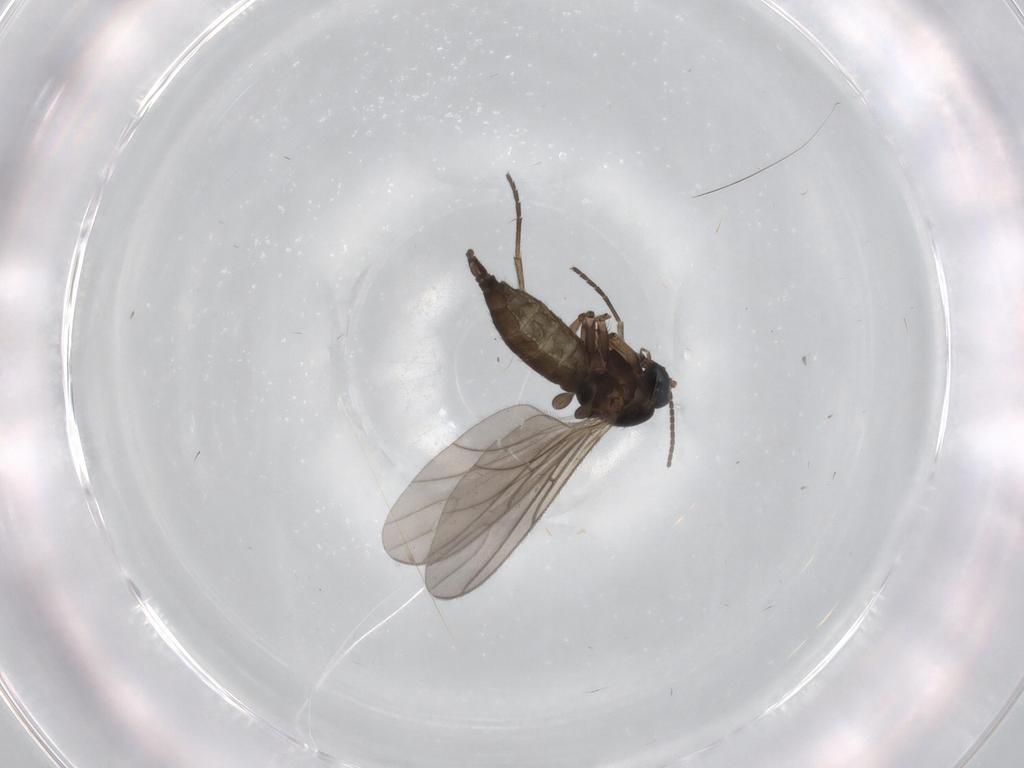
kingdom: Animalia
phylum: Arthropoda
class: Insecta
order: Diptera
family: Sciaridae
